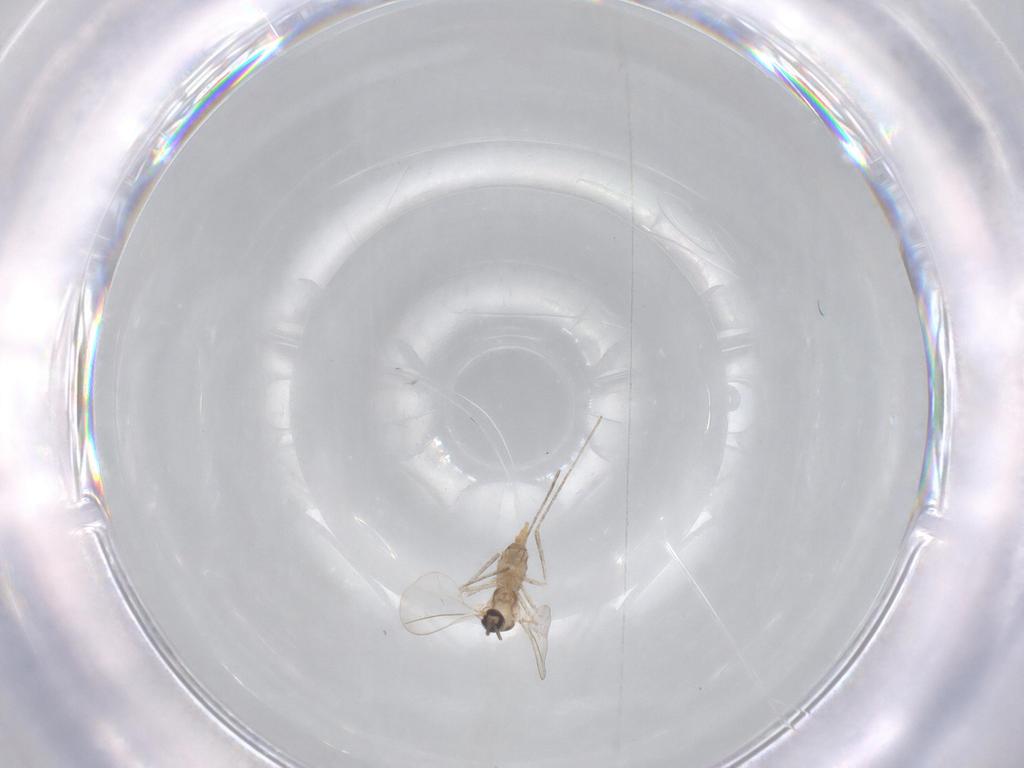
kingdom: Animalia
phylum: Arthropoda
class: Insecta
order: Diptera
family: Cecidomyiidae
